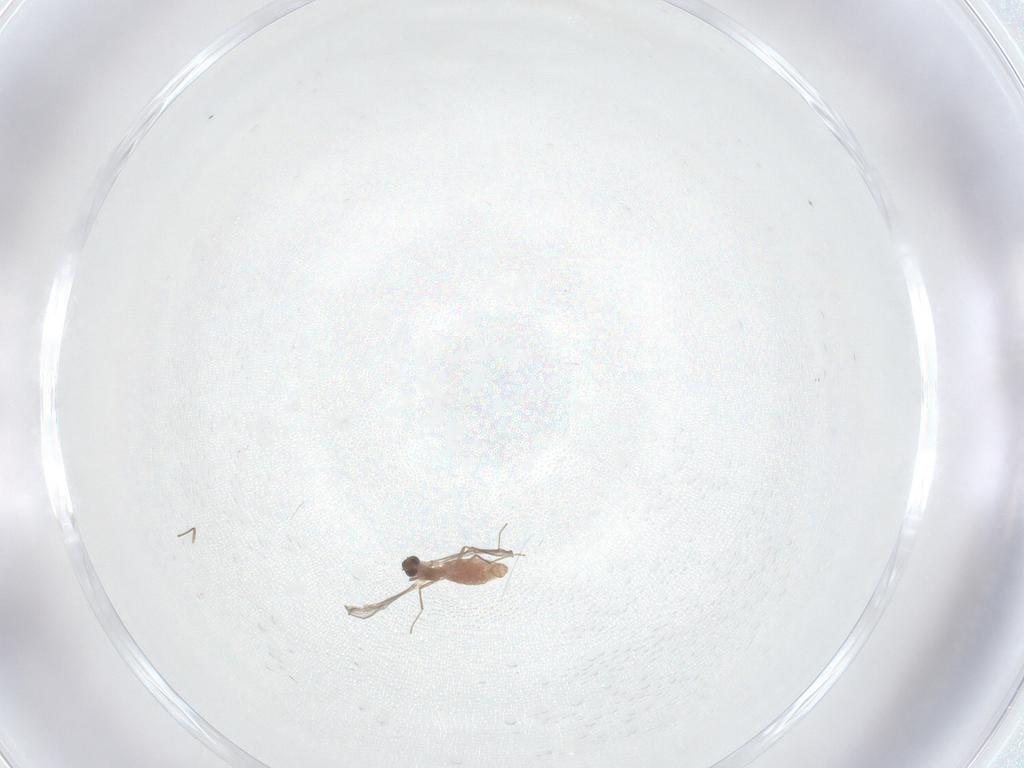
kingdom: Animalia
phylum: Arthropoda
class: Insecta
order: Diptera
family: Chironomidae
